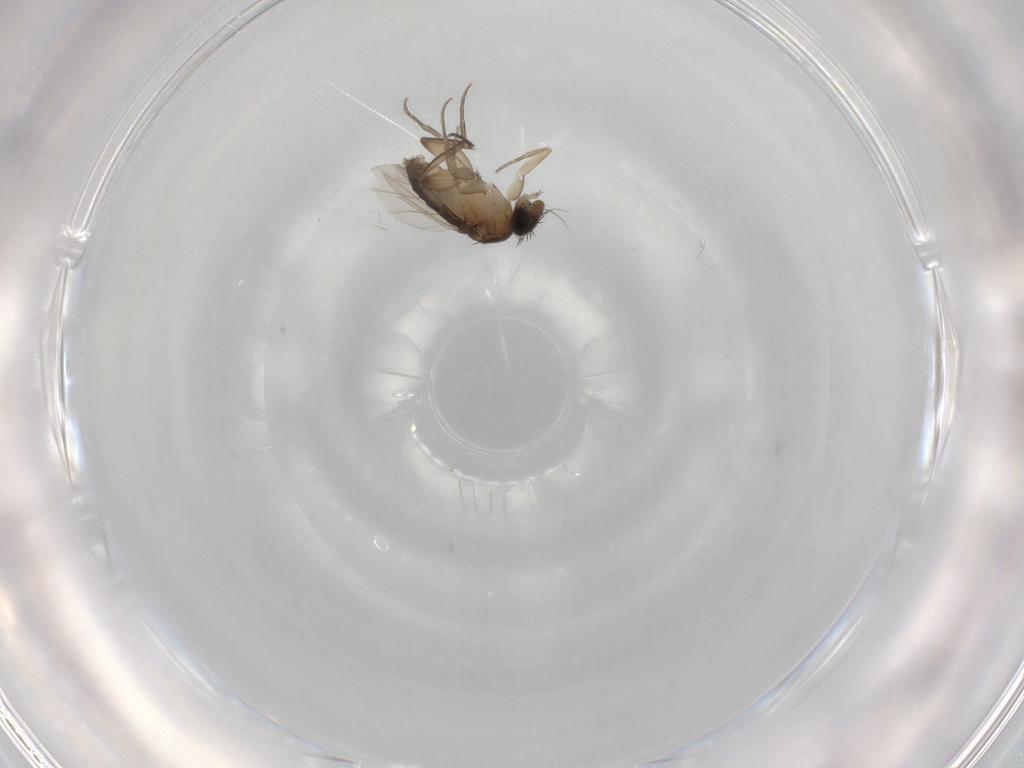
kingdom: Animalia
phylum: Arthropoda
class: Insecta
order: Diptera
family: Phoridae
